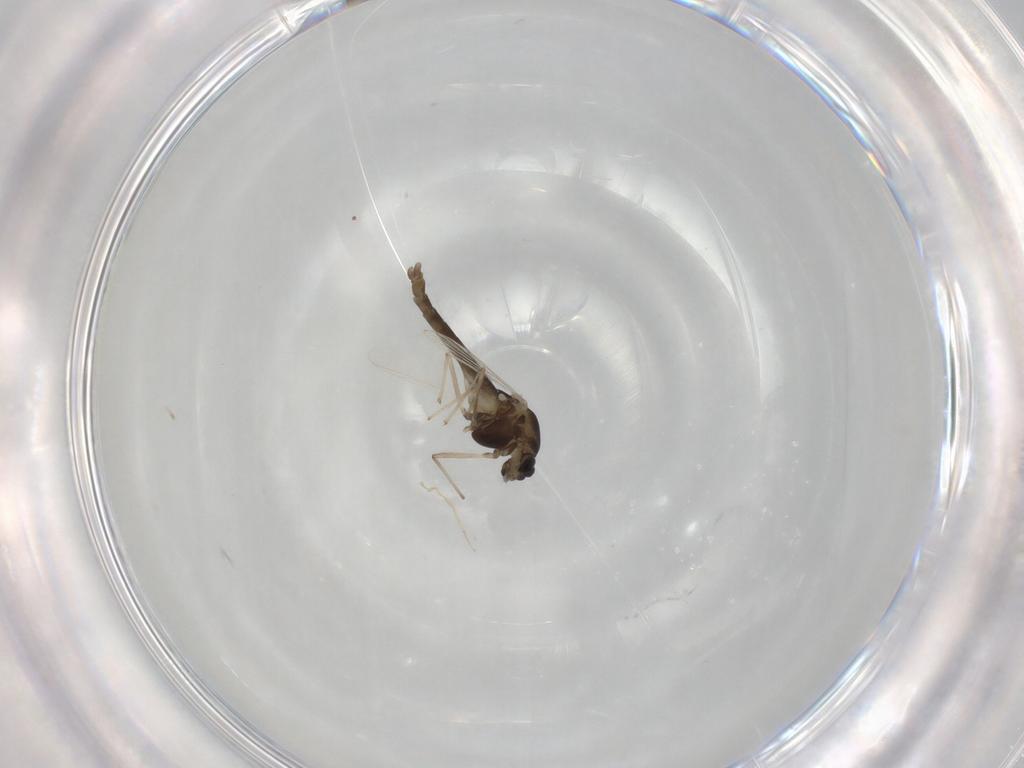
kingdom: Animalia
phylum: Arthropoda
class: Insecta
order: Diptera
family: Chironomidae
